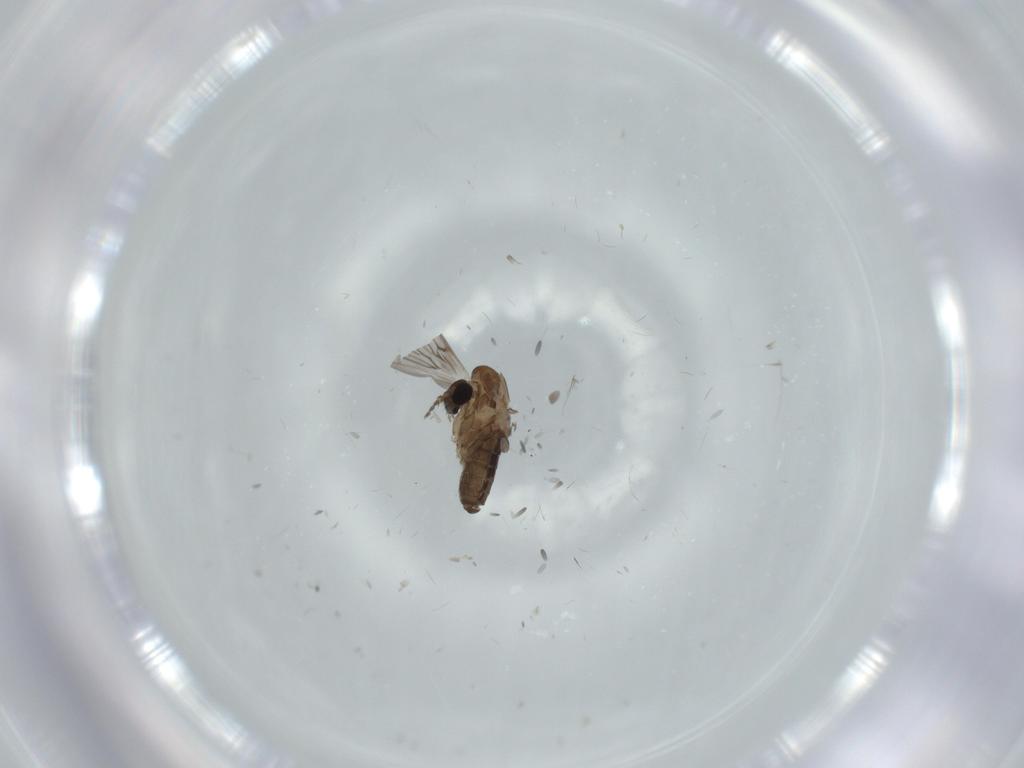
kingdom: Animalia
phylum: Arthropoda
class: Insecta
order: Diptera
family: Psychodidae
